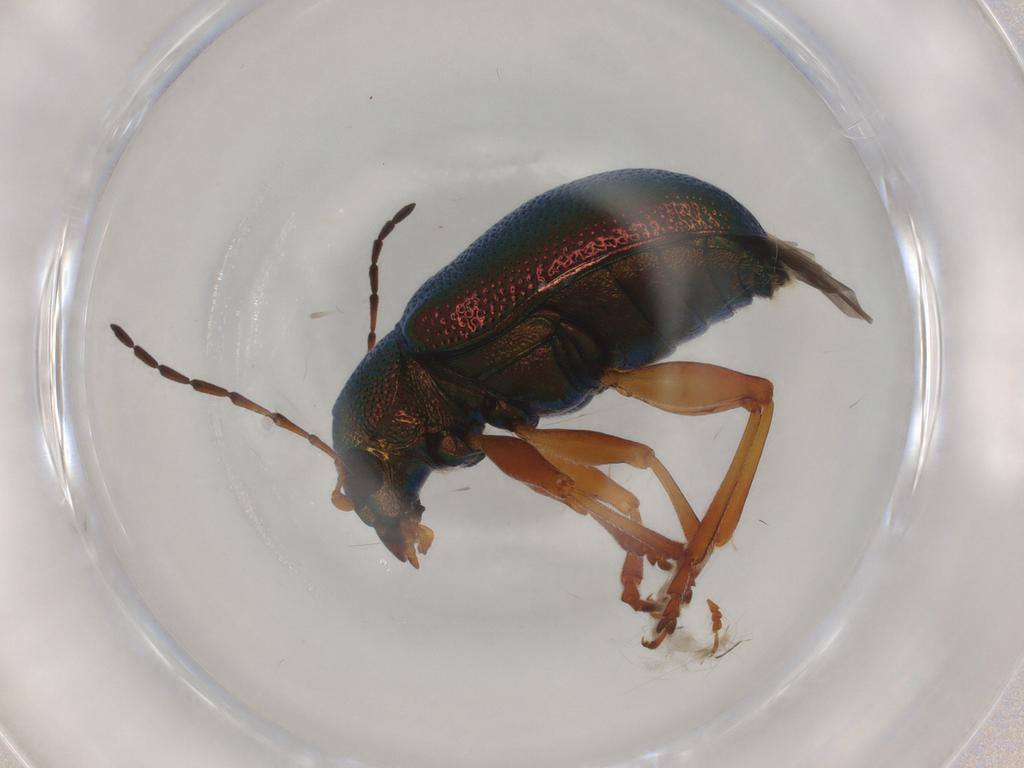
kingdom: Animalia
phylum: Arthropoda
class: Insecta
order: Coleoptera
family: Chrysomelidae
